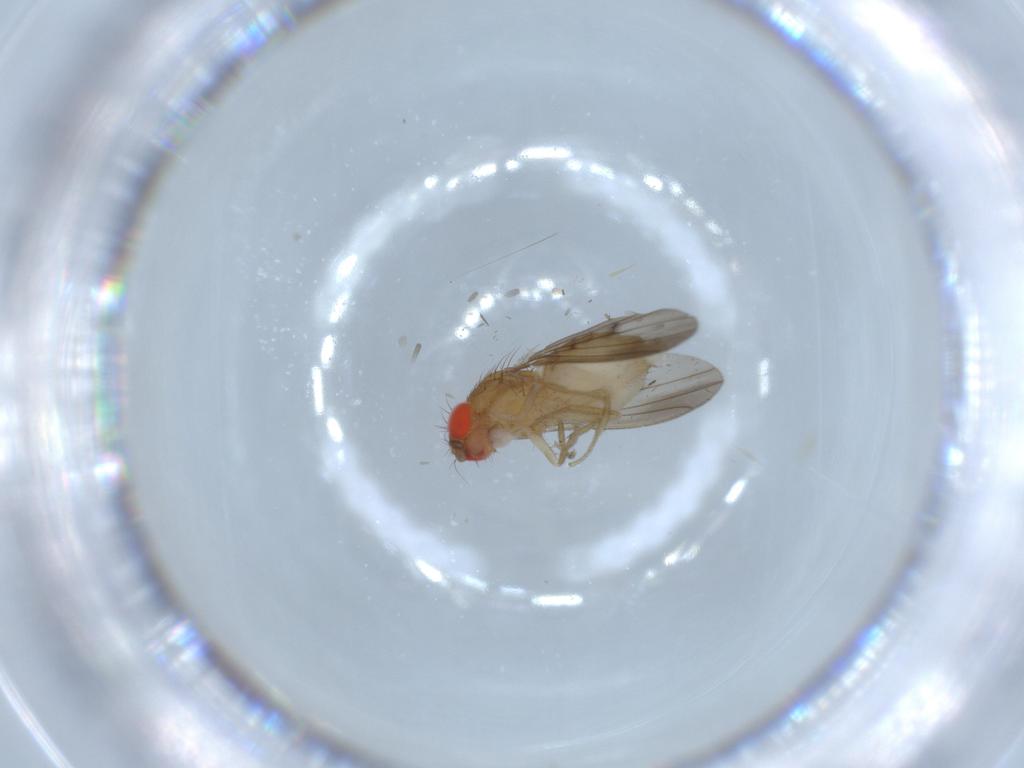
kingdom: Animalia
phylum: Arthropoda
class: Insecta
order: Diptera
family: Drosophilidae
